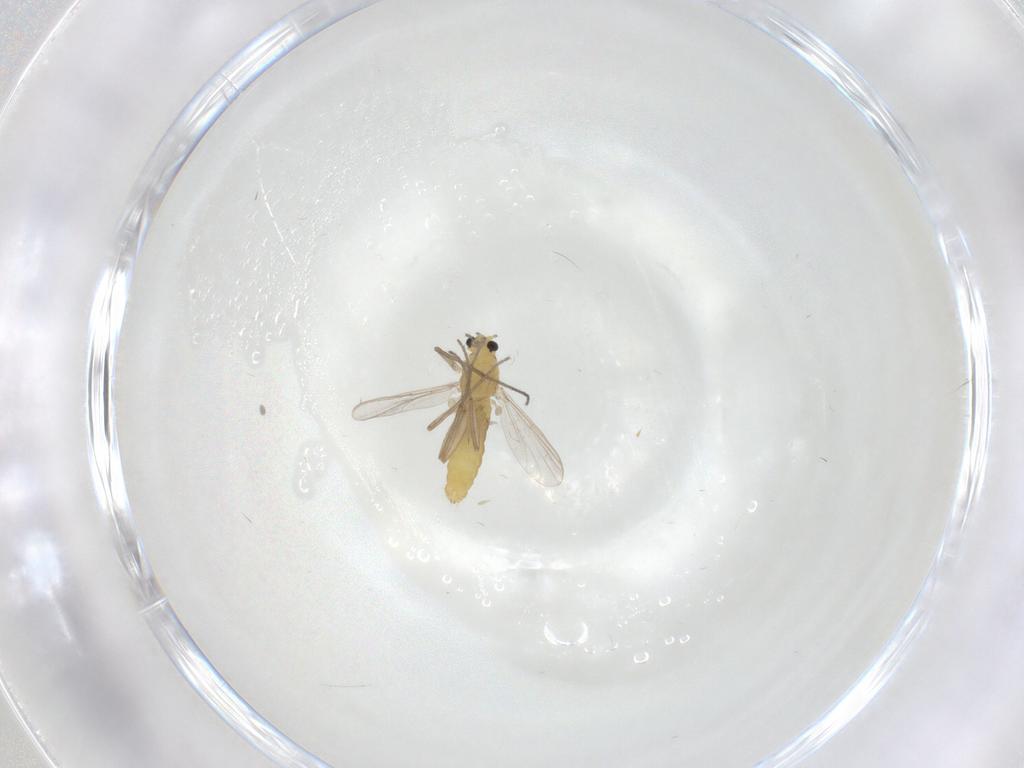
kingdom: Animalia
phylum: Arthropoda
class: Insecta
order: Diptera
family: Chironomidae
